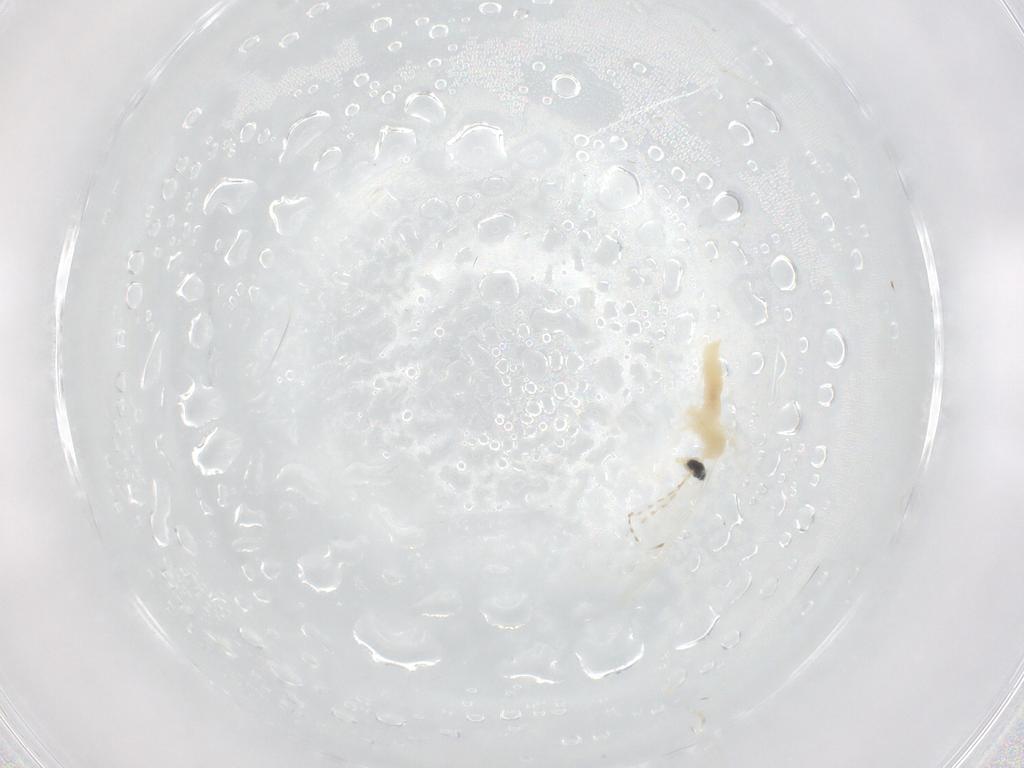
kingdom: Animalia
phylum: Arthropoda
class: Insecta
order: Diptera
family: Cecidomyiidae
